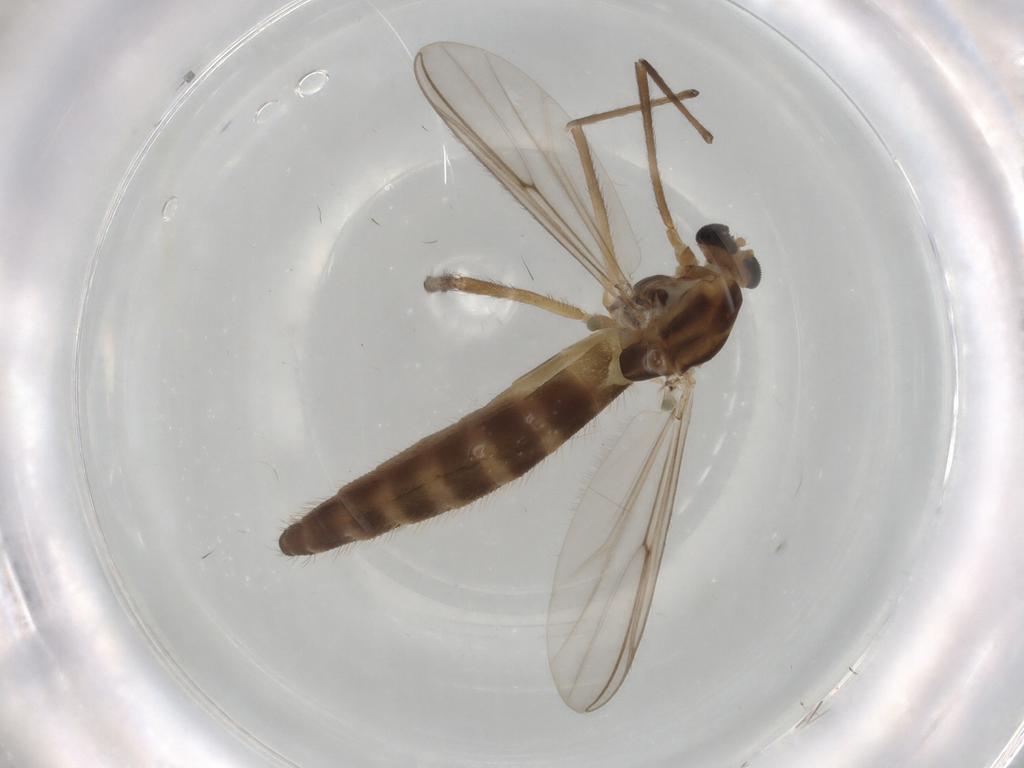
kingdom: Animalia
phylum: Arthropoda
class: Insecta
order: Diptera
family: Chironomidae
